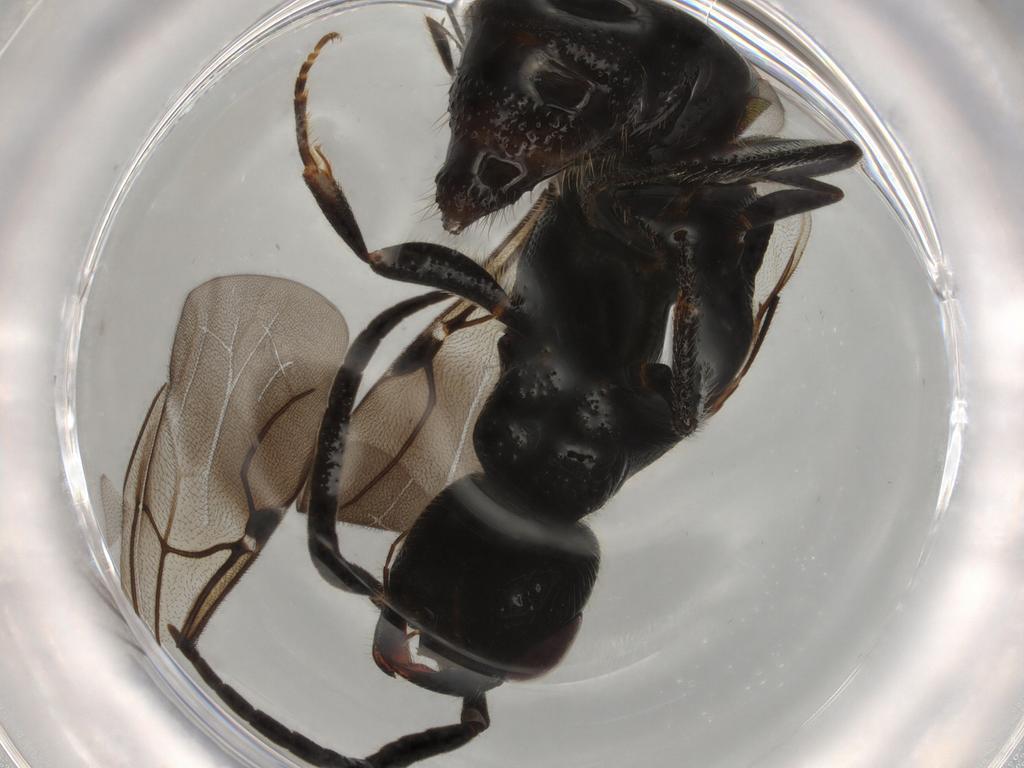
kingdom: Animalia
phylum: Arthropoda
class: Insecta
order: Hymenoptera
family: Bethylidae
